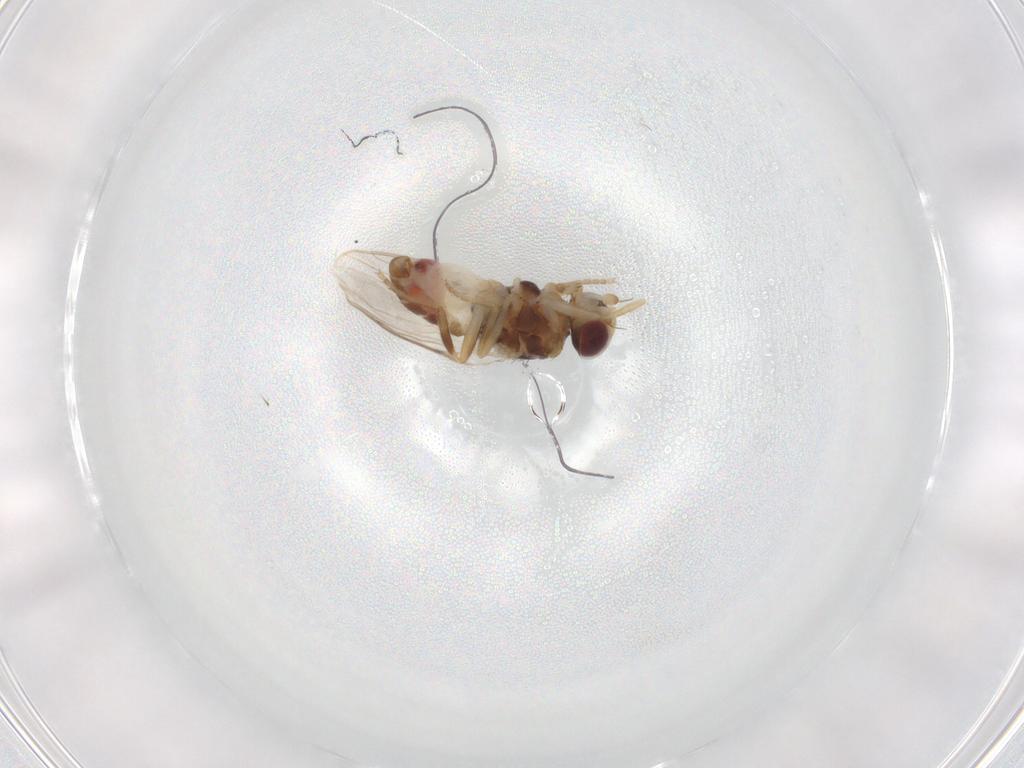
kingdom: Animalia
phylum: Arthropoda
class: Insecta
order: Diptera
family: Chloropidae
